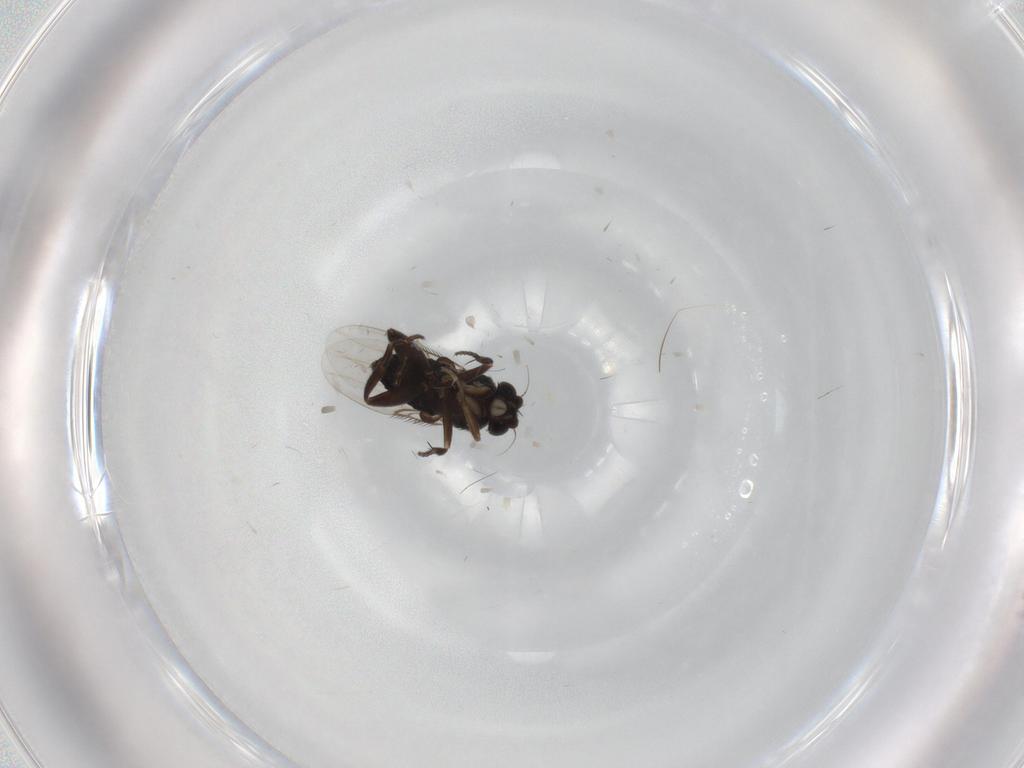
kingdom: Animalia
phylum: Arthropoda
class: Insecta
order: Diptera
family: Phoridae
